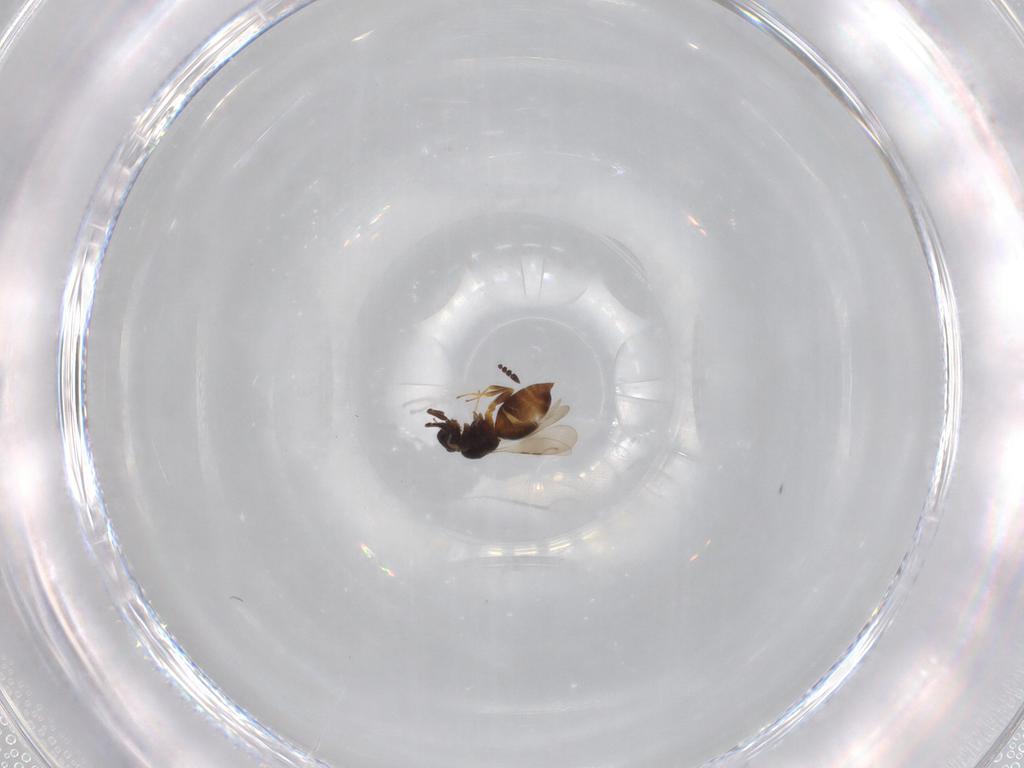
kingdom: Animalia
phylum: Arthropoda
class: Insecta
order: Hymenoptera
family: Ceraphronidae
